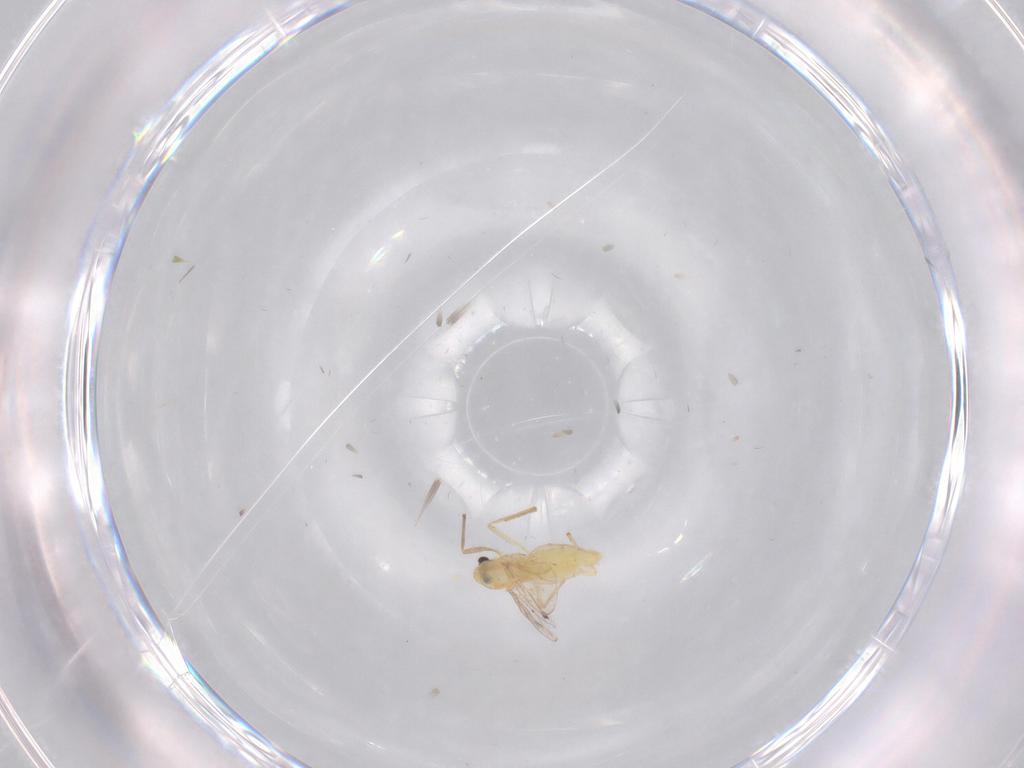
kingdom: Animalia
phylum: Arthropoda
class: Insecta
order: Diptera
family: Chironomidae
